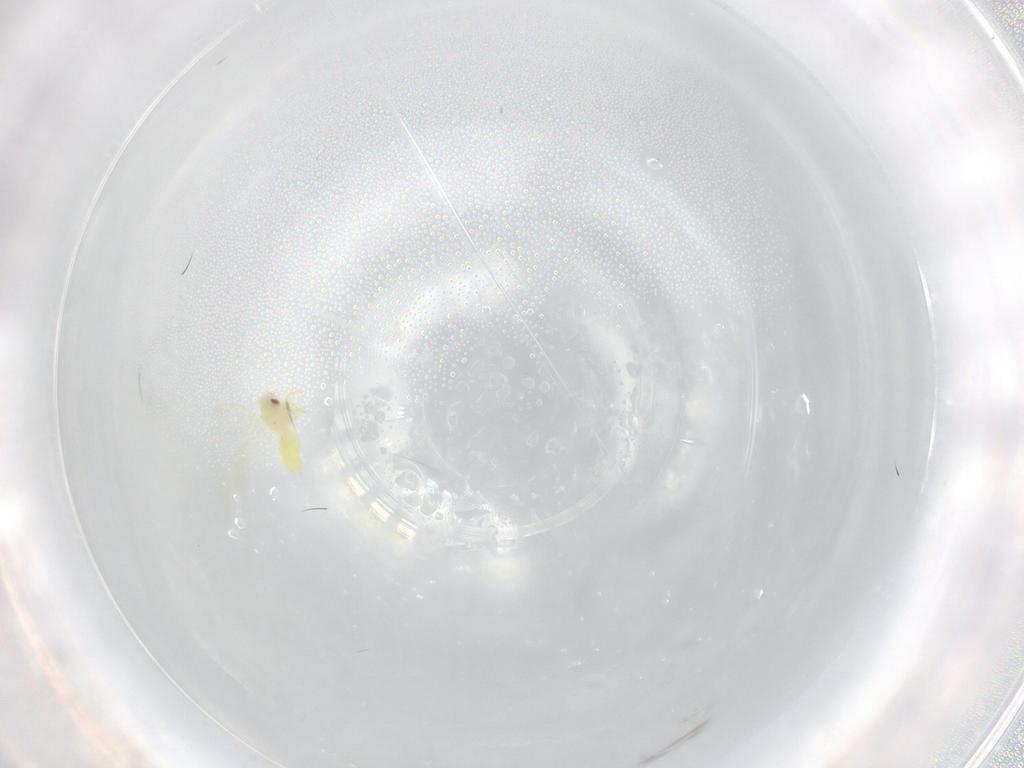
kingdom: Animalia
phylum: Arthropoda
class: Insecta
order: Hemiptera
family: Aleyrodidae
